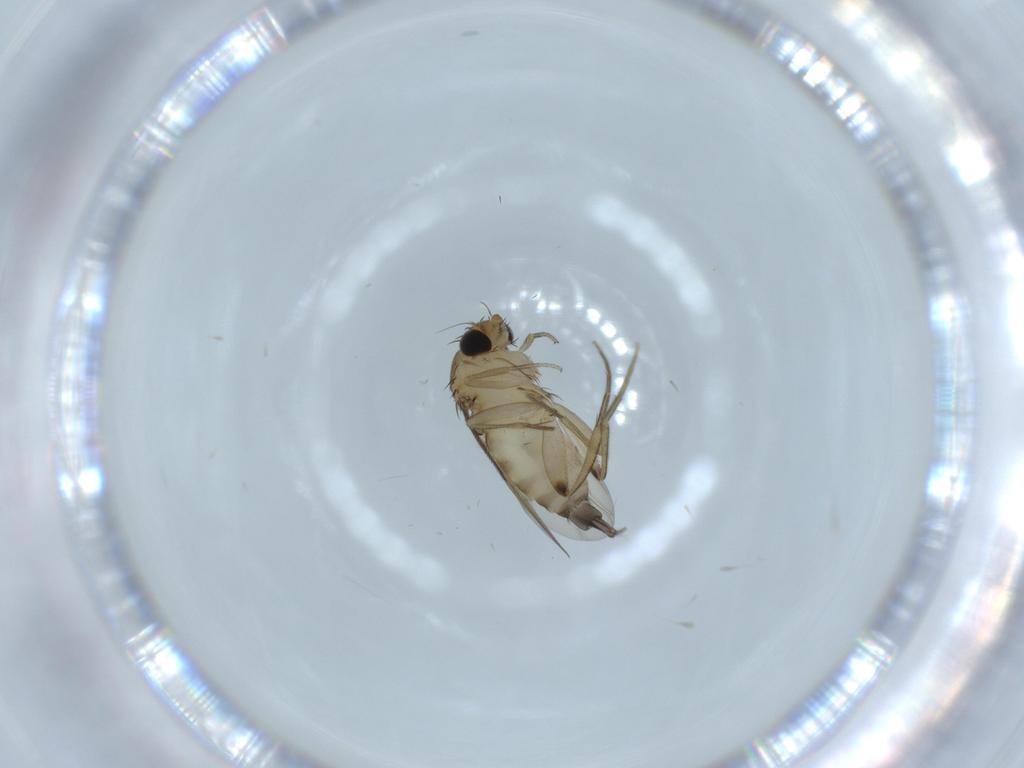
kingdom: Animalia
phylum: Arthropoda
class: Insecta
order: Diptera
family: Phoridae
